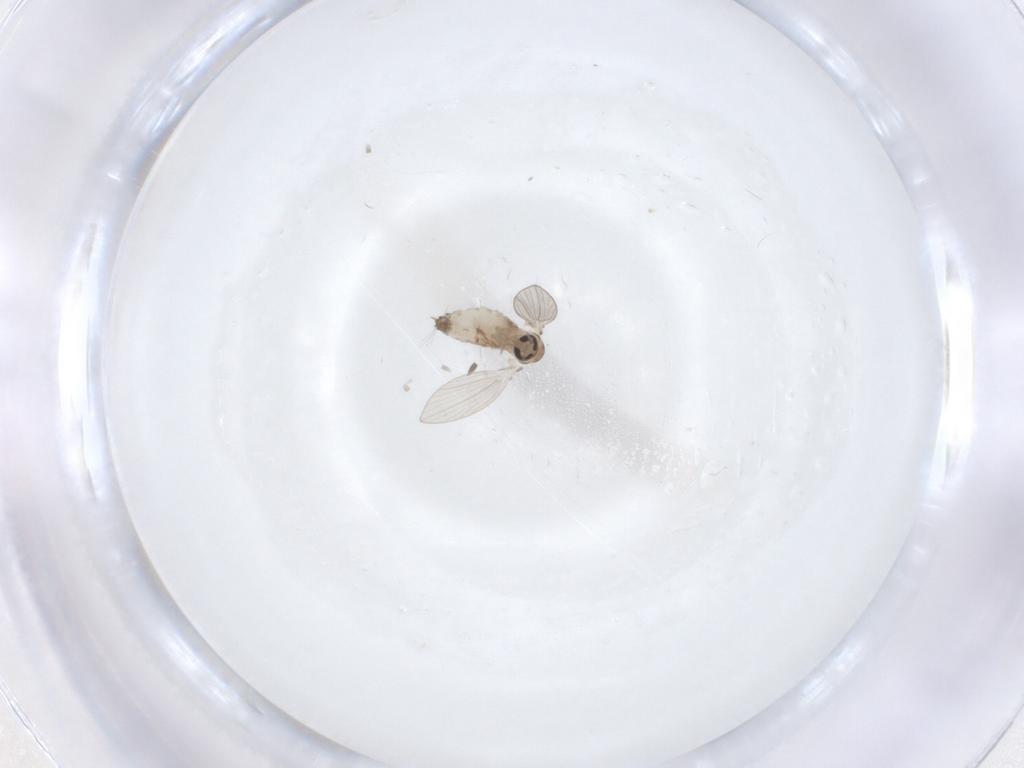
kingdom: Animalia
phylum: Arthropoda
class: Insecta
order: Diptera
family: Psychodidae
